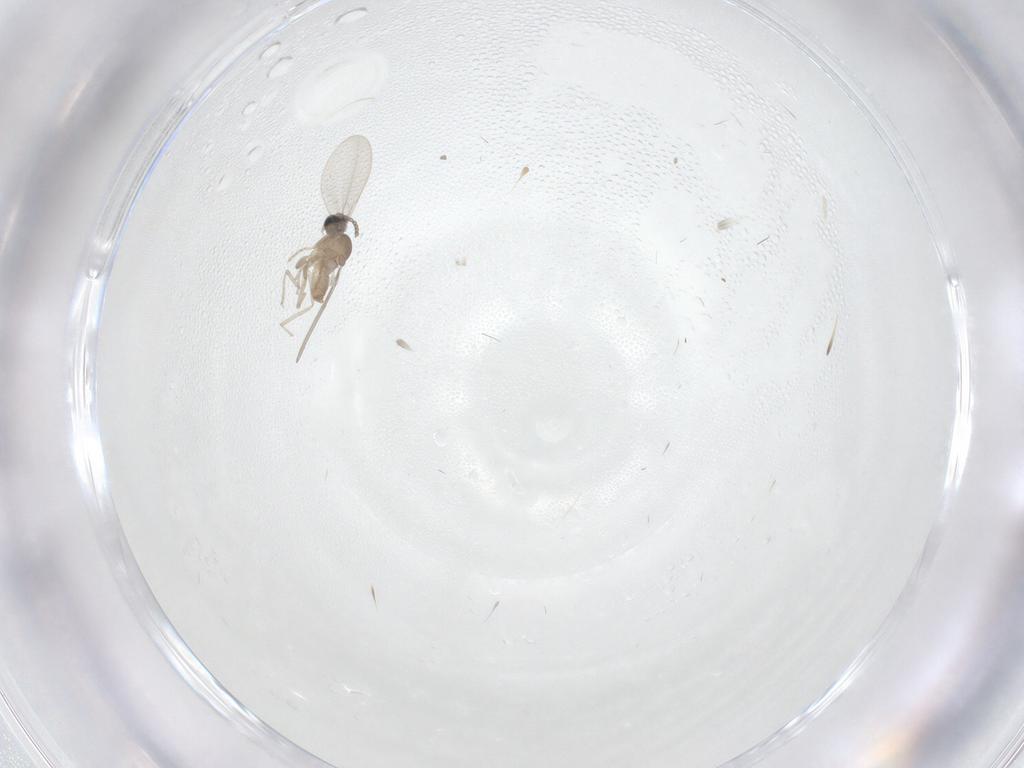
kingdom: Animalia
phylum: Arthropoda
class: Insecta
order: Diptera
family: Cecidomyiidae
